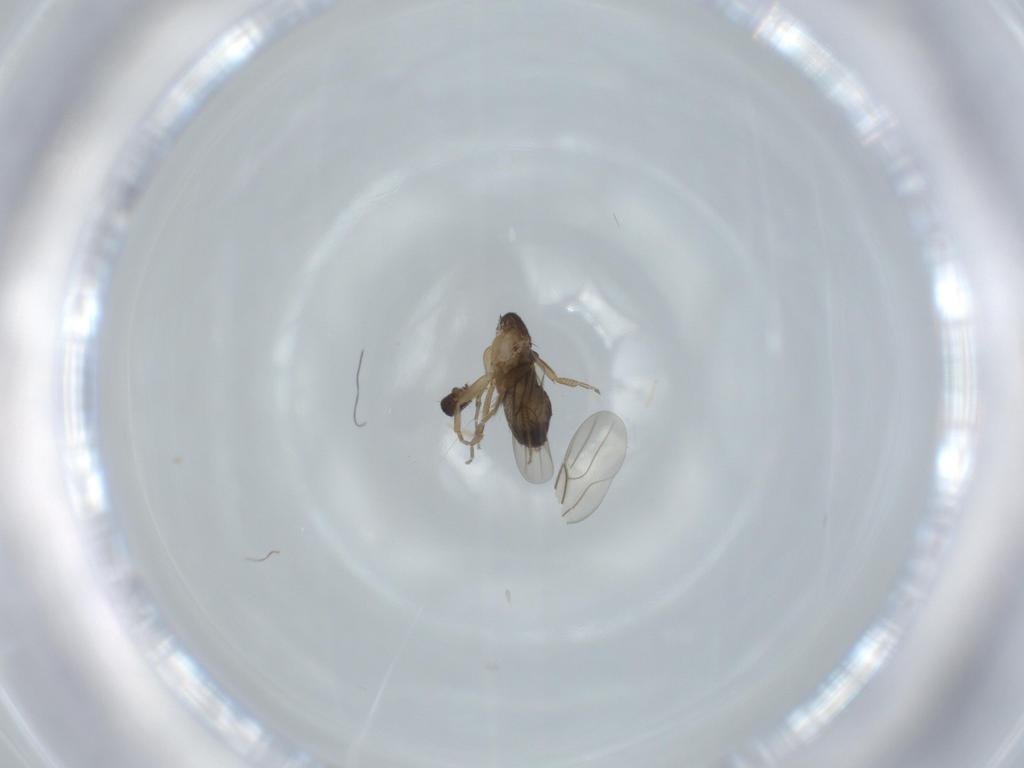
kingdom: Animalia
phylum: Arthropoda
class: Insecta
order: Diptera
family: Phoridae
